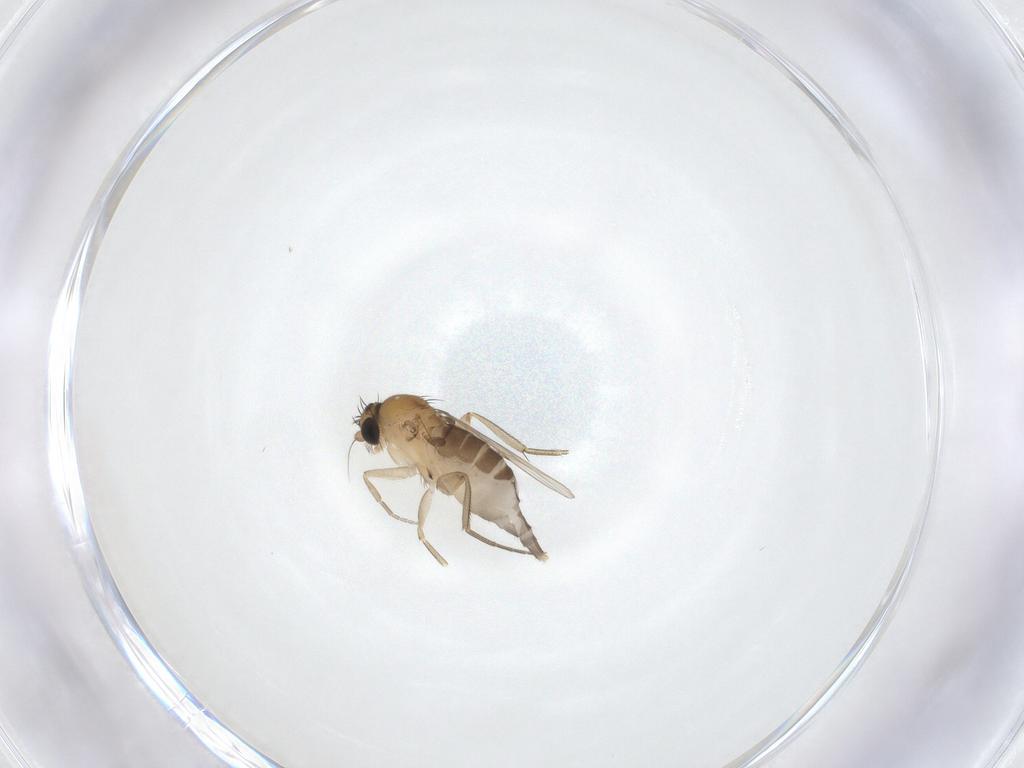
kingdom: Animalia
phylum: Arthropoda
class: Insecta
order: Diptera
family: Phoridae
